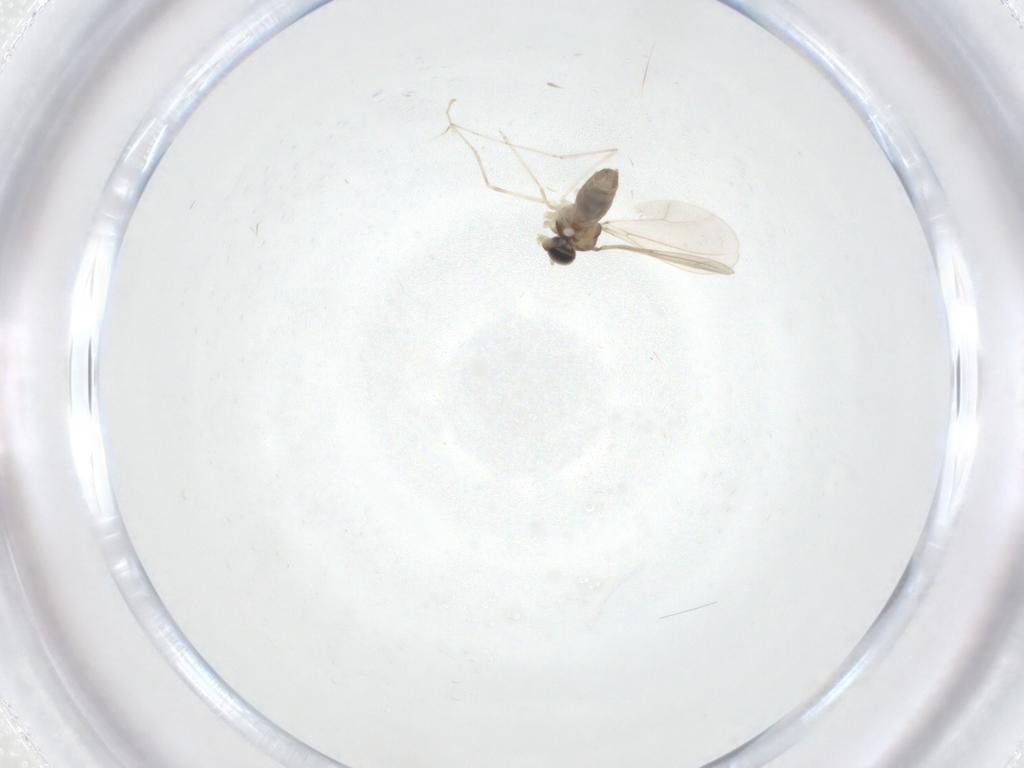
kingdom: Animalia
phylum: Arthropoda
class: Insecta
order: Diptera
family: Cecidomyiidae
